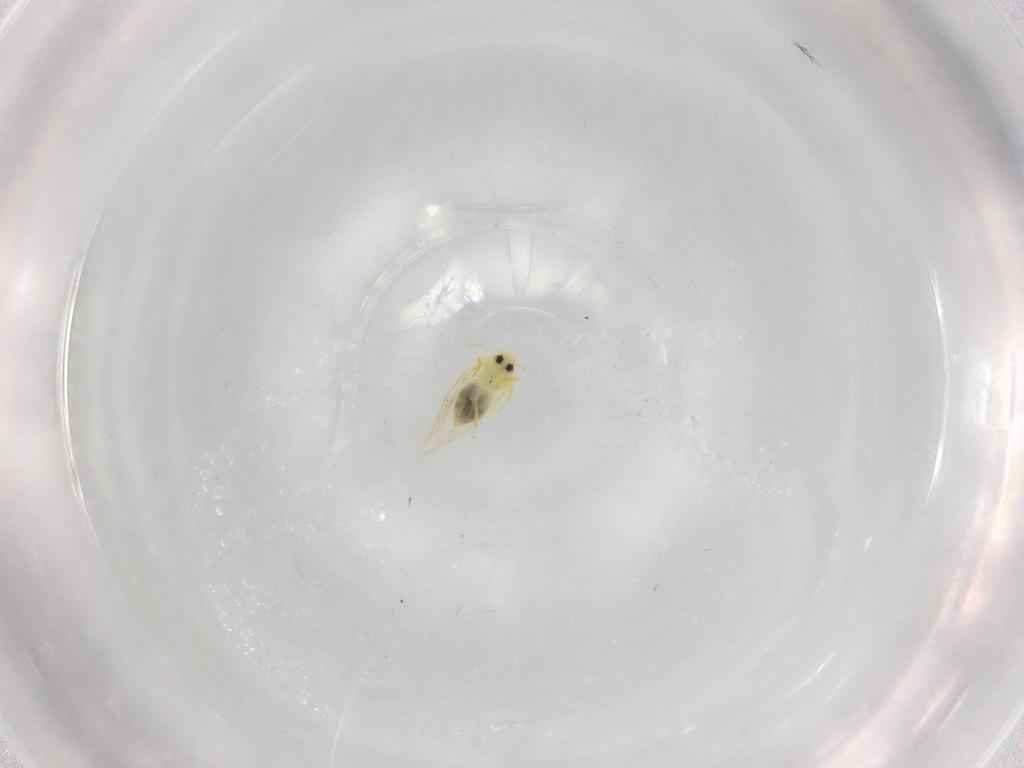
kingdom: Animalia
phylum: Arthropoda
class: Insecta
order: Hemiptera
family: Aleyrodidae
